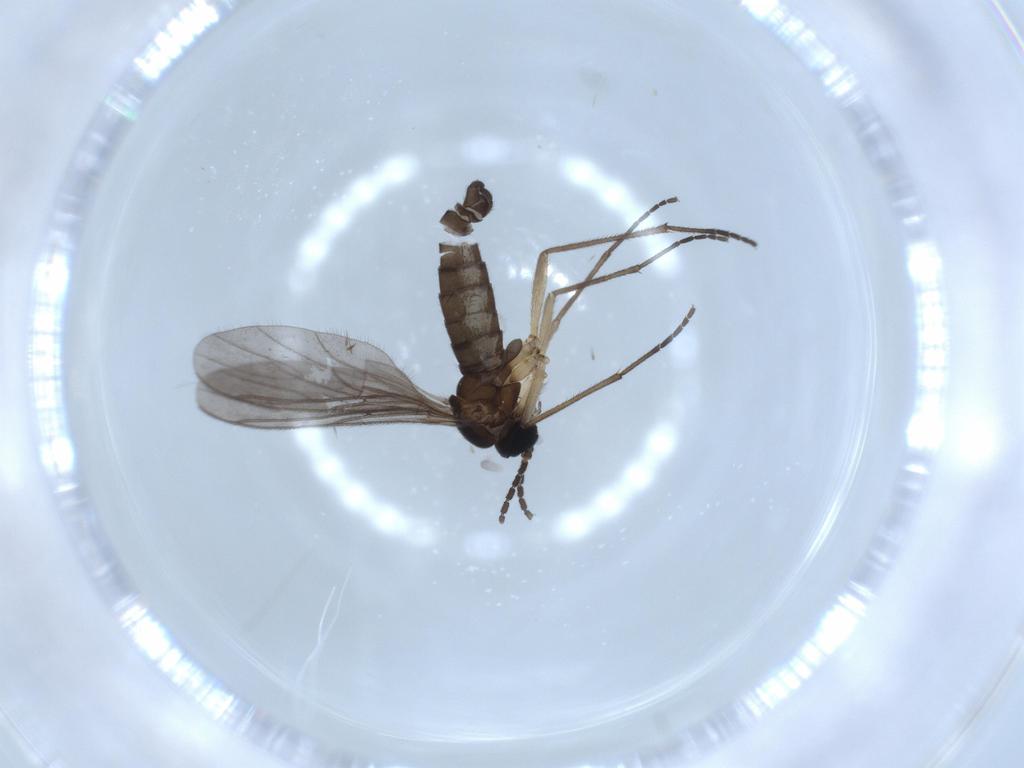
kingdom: Animalia
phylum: Arthropoda
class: Insecta
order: Diptera
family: Sciaridae
